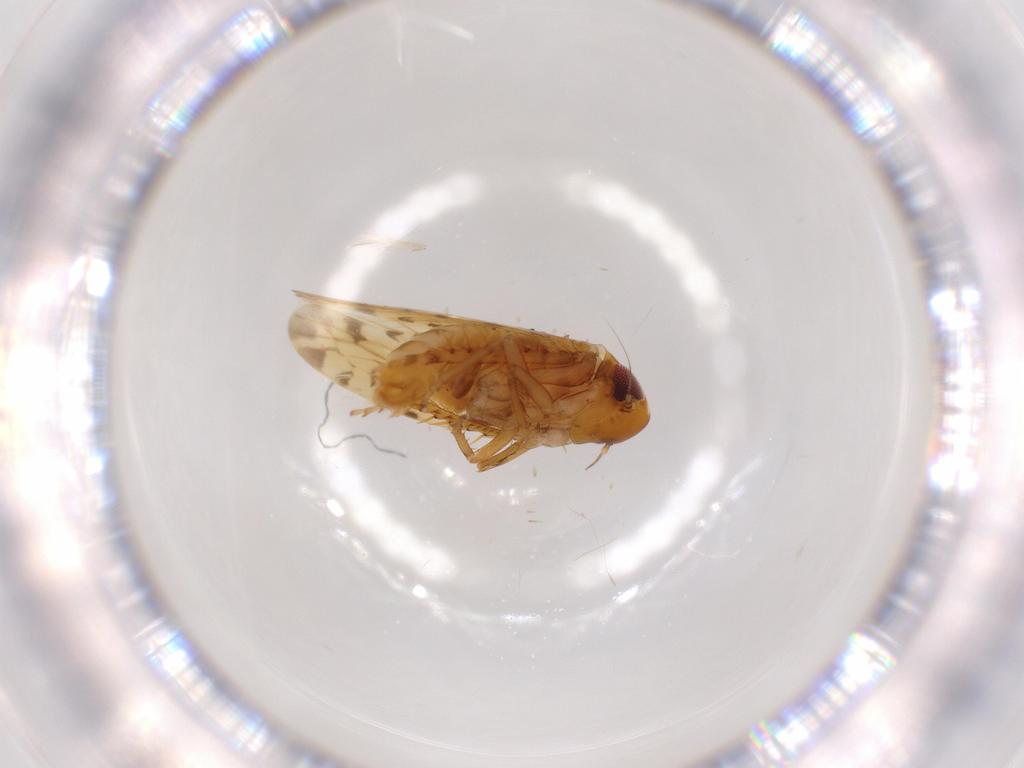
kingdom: Animalia
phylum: Arthropoda
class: Insecta
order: Hemiptera
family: Cicadellidae
